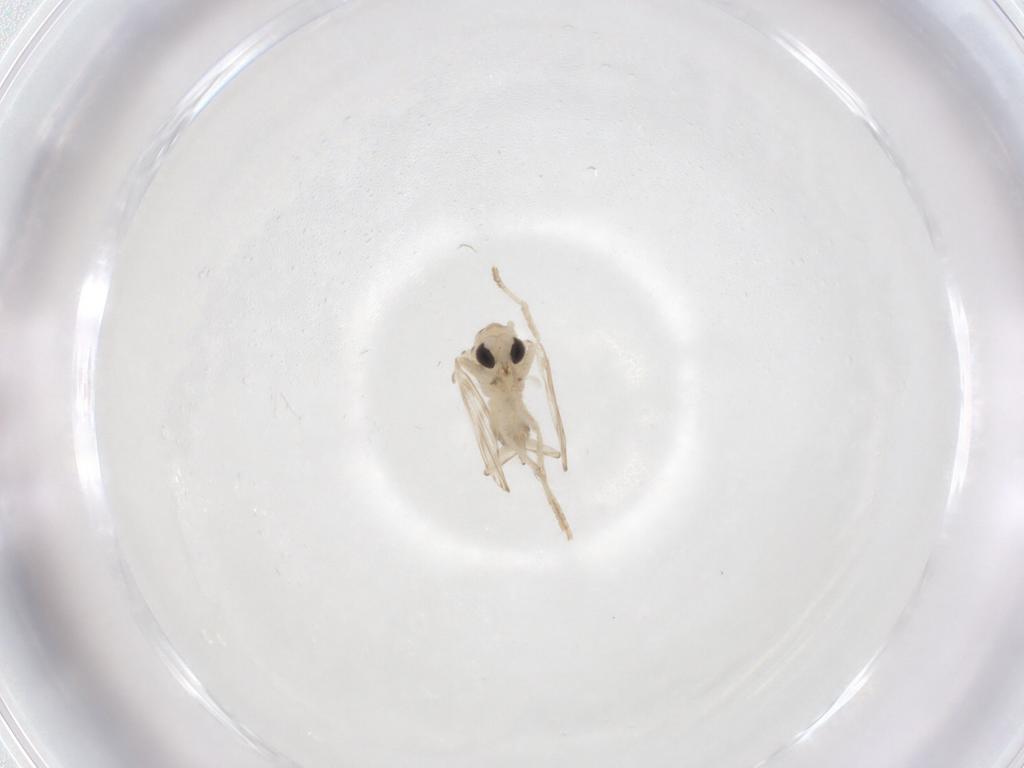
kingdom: Animalia
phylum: Arthropoda
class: Insecta
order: Diptera
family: Psychodidae
